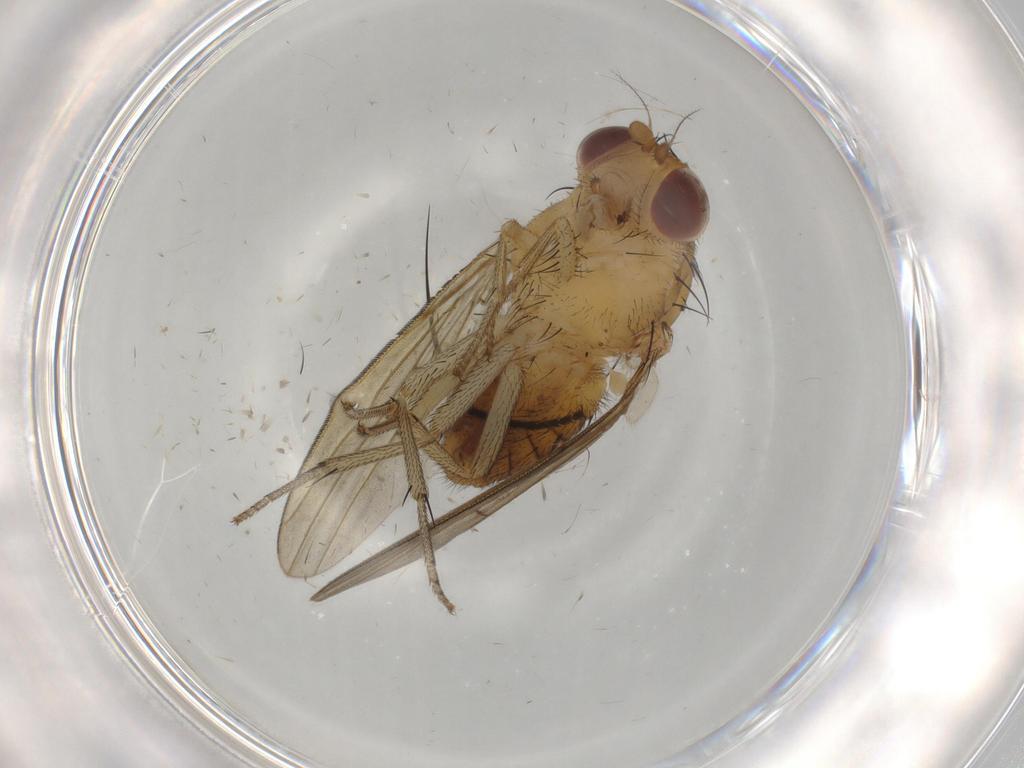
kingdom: Animalia
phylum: Arthropoda
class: Insecta
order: Diptera
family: Lauxaniidae
